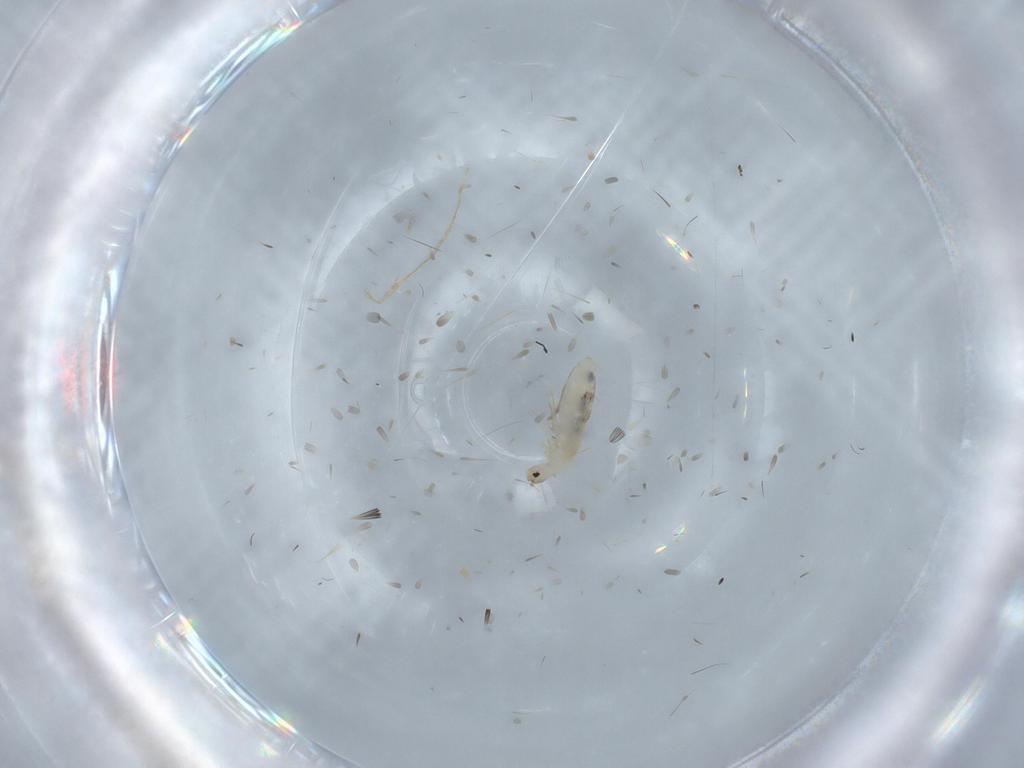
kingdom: Animalia
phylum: Arthropoda
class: Collembola
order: Entomobryomorpha
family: Entomobryidae
